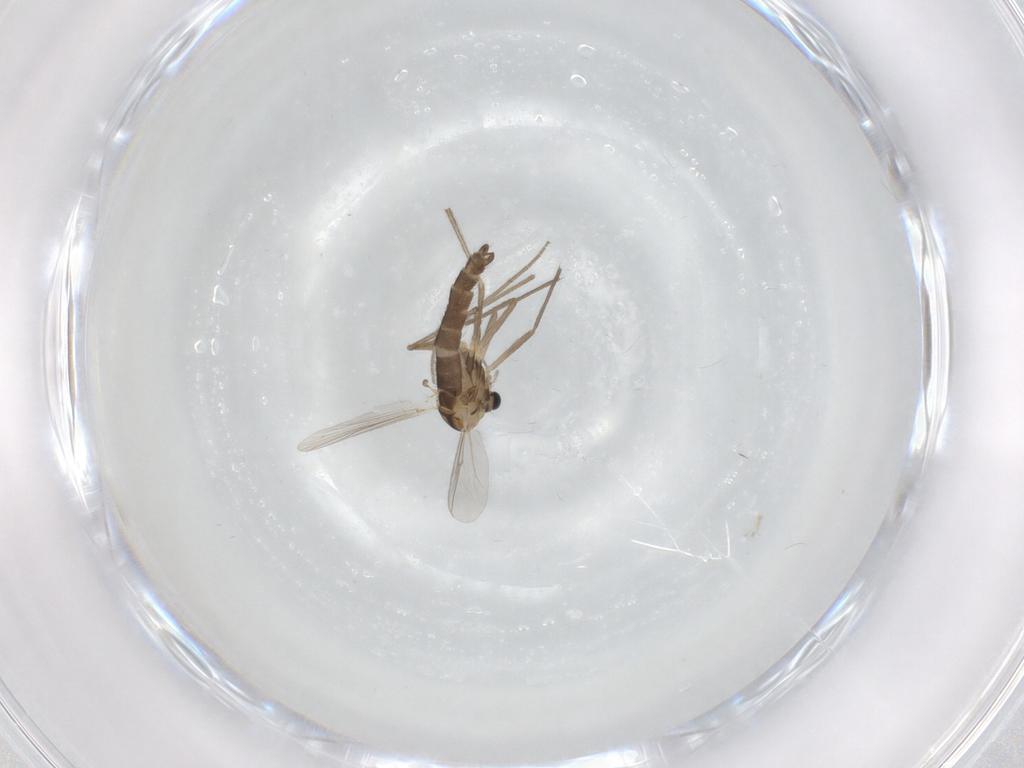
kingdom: Animalia
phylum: Arthropoda
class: Insecta
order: Diptera
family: Chironomidae
